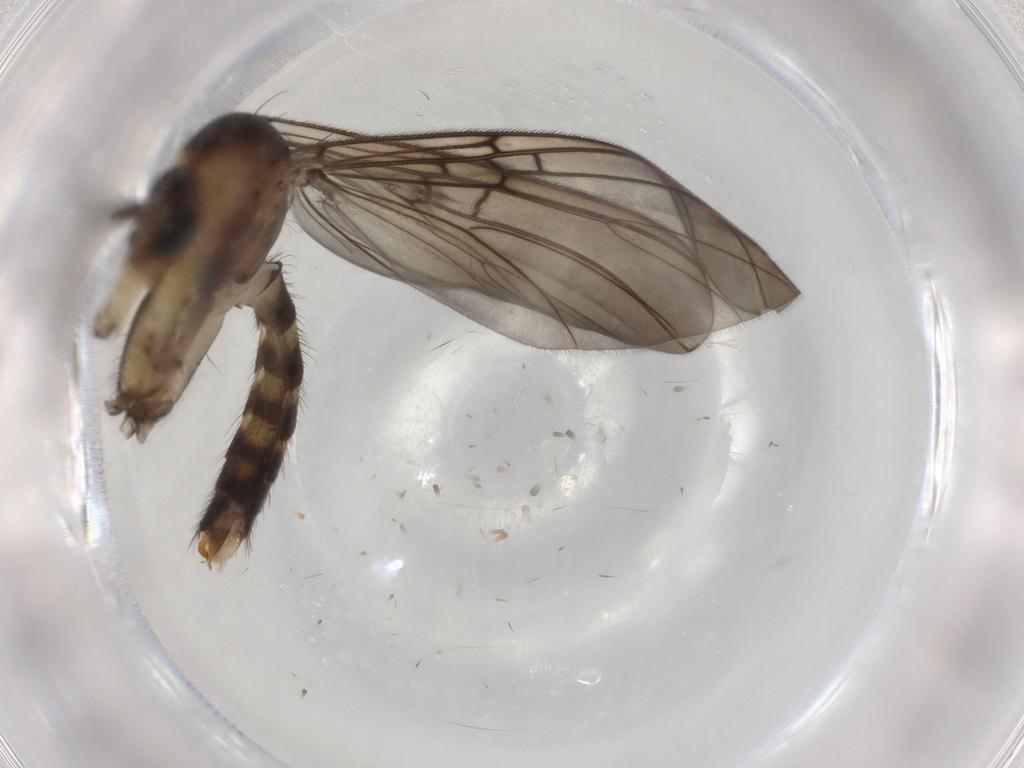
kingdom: Animalia
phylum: Arthropoda
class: Insecta
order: Diptera
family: Mycetophilidae
